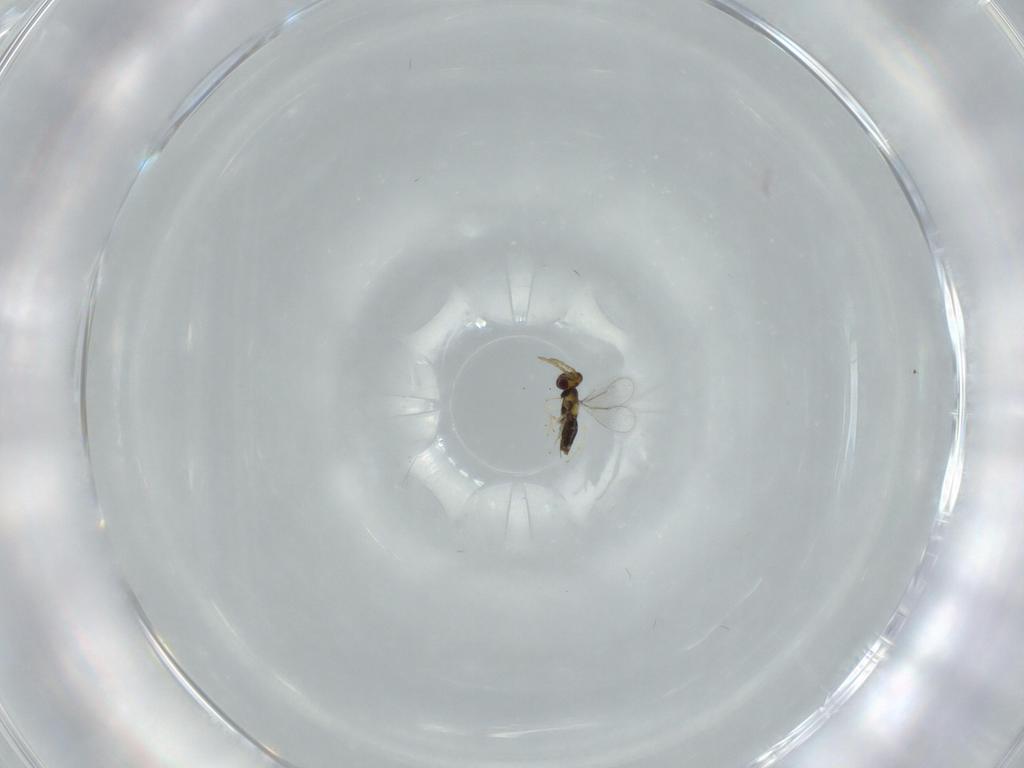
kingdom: Animalia
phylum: Arthropoda
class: Insecta
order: Hymenoptera
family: Aphelinidae
